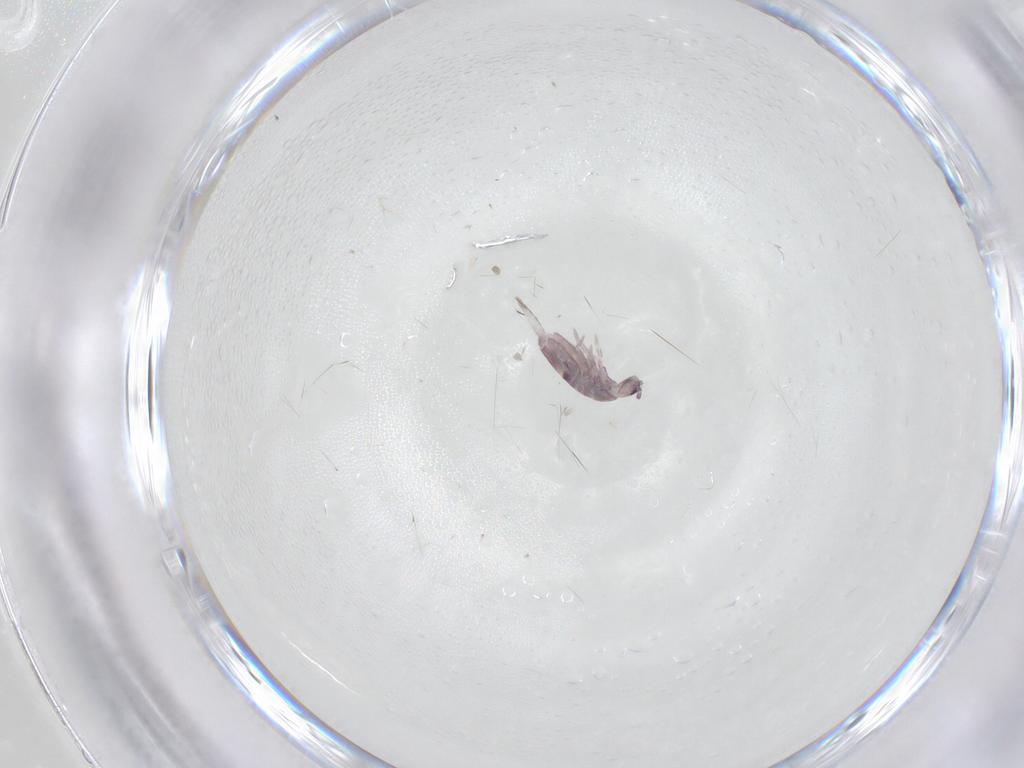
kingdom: Animalia
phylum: Arthropoda
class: Collembola
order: Entomobryomorpha
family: Entomobryidae
